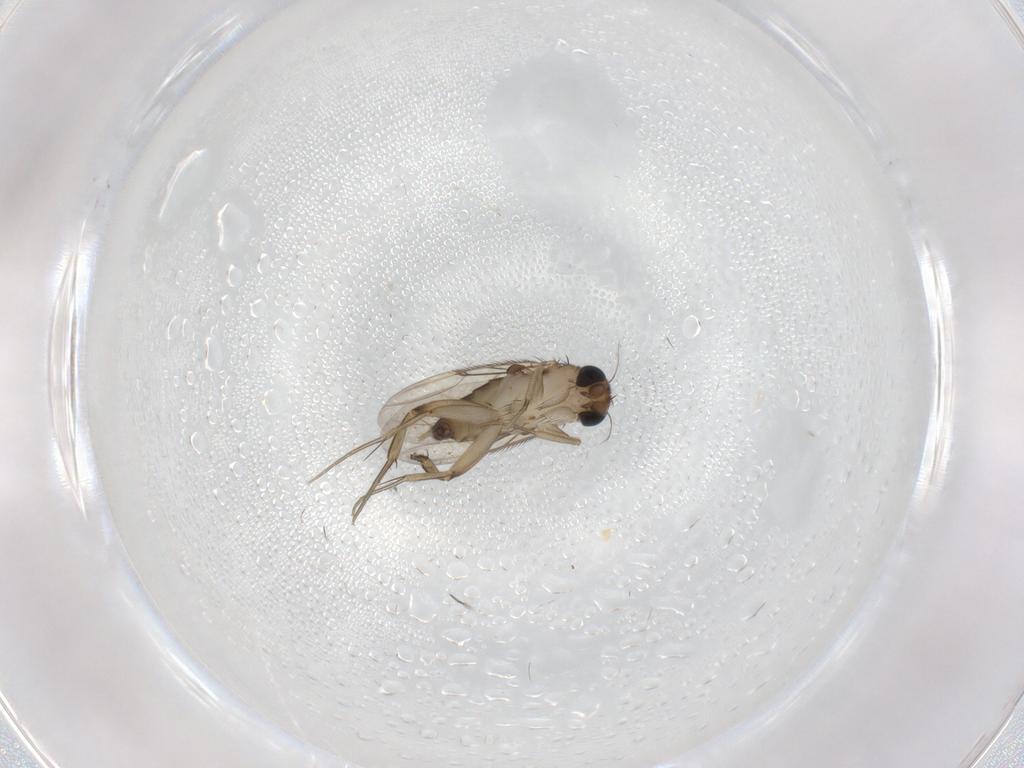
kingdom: Animalia
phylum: Arthropoda
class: Insecta
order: Diptera
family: Phoridae
